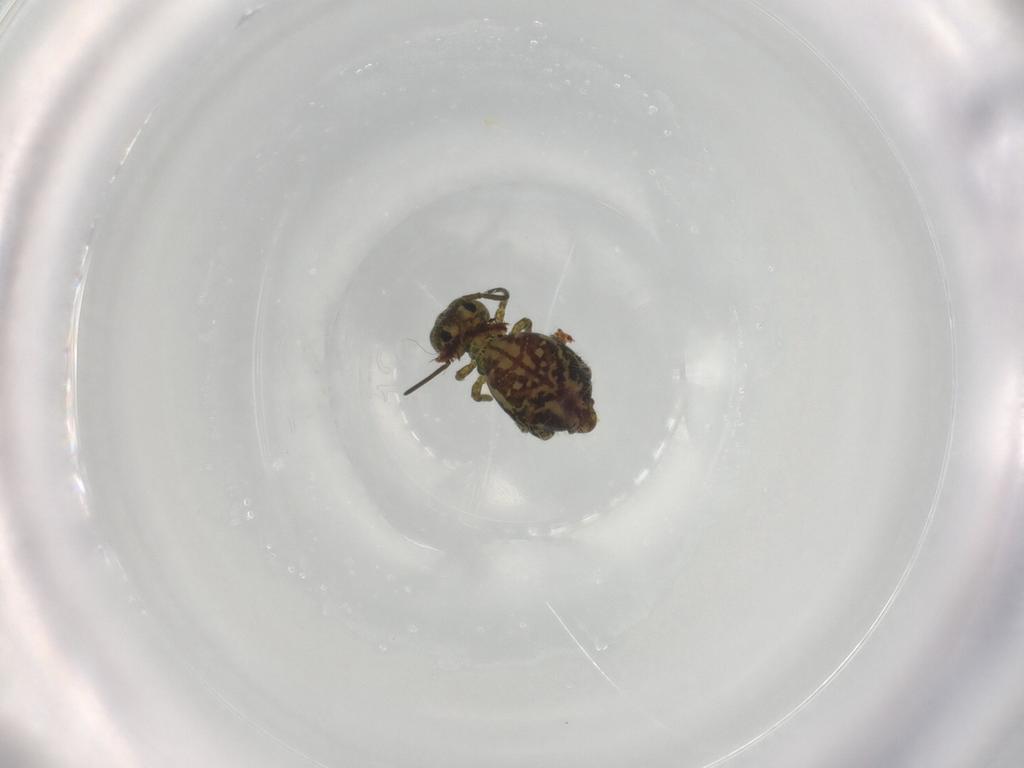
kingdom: Animalia
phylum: Arthropoda
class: Collembola
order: Symphypleona
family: Sminthuridae
